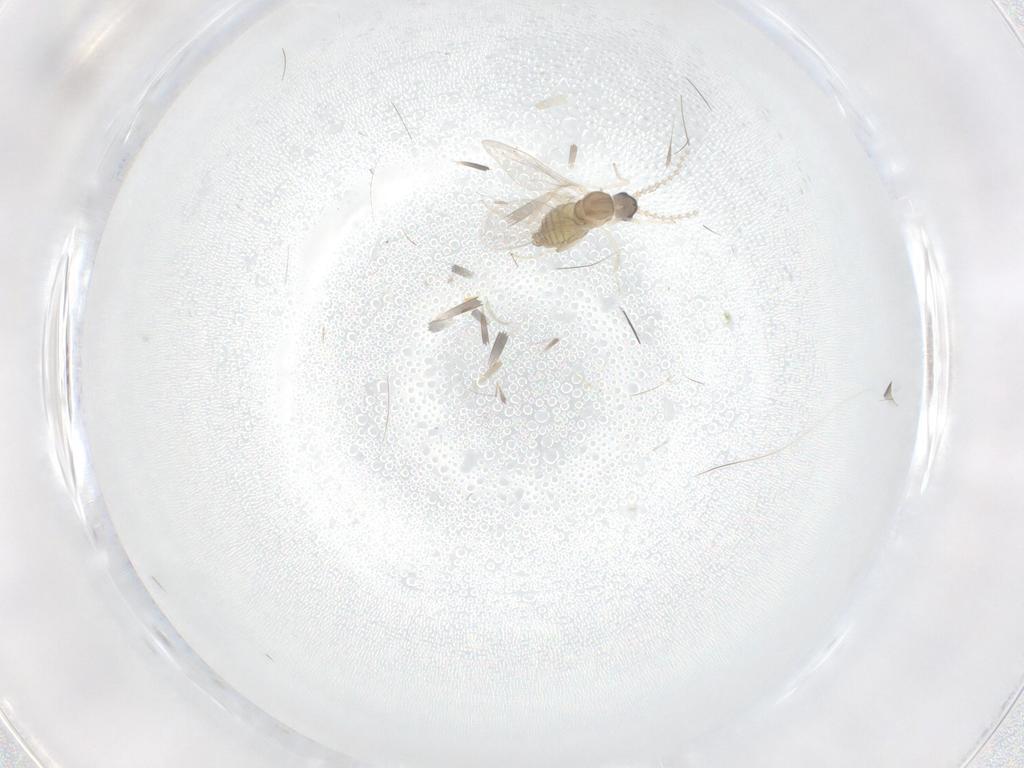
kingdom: Animalia
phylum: Arthropoda
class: Insecta
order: Diptera
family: Cecidomyiidae
